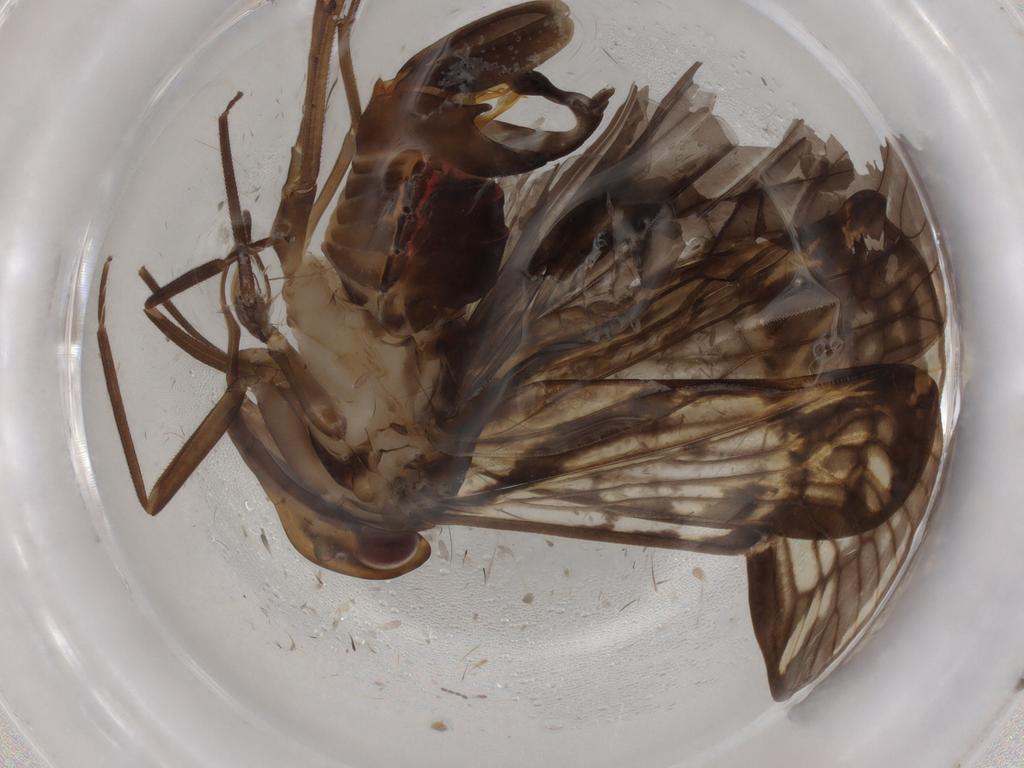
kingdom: Animalia
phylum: Arthropoda
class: Insecta
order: Hemiptera
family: Cixiidae
